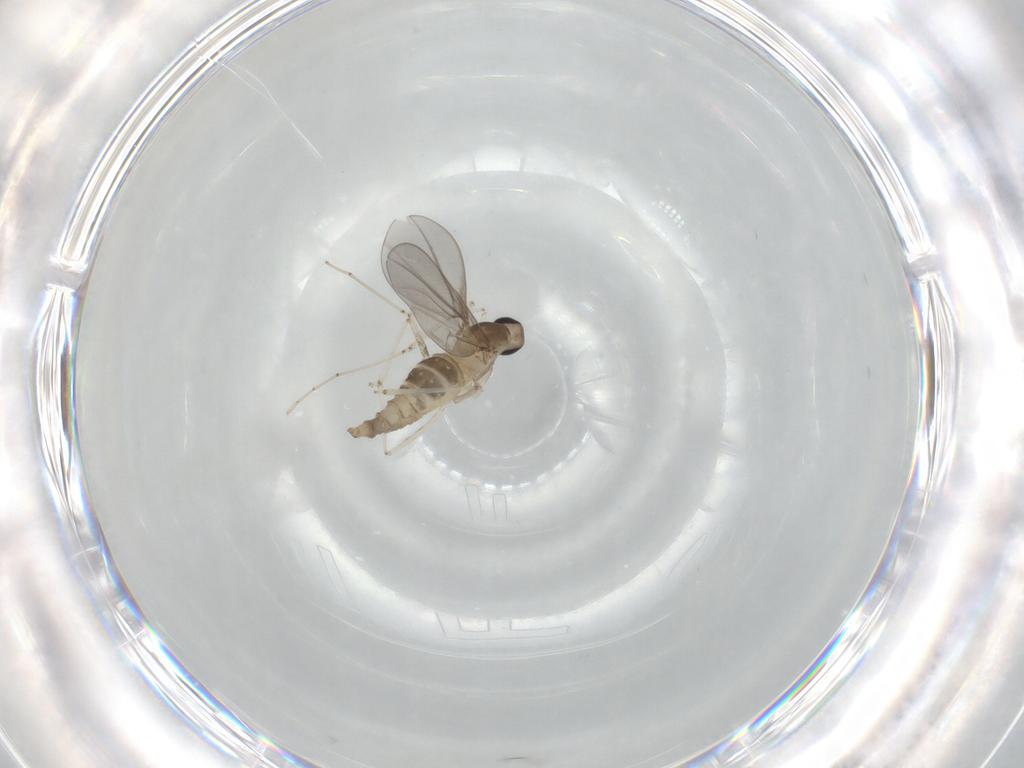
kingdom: Animalia
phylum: Arthropoda
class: Insecta
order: Diptera
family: Cecidomyiidae
